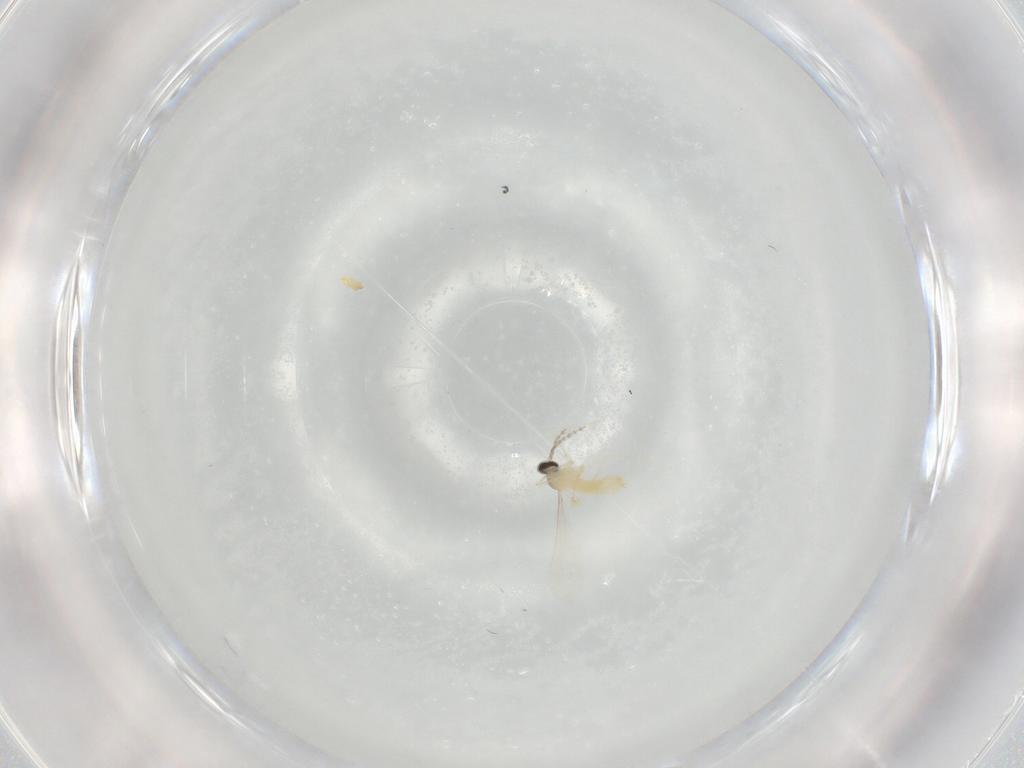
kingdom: Animalia
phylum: Arthropoda
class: Insecta
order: Diptera
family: Cecidomyiidae
